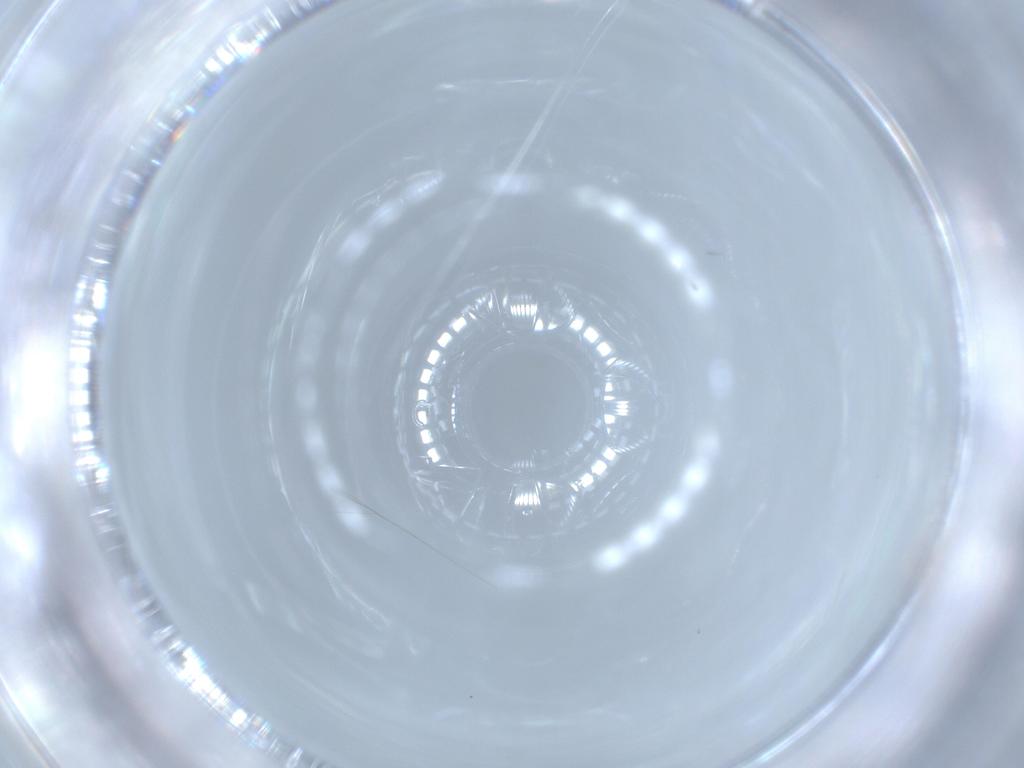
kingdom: Animalia
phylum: Arthropoda
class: Insecta
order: Diptera
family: Cecidomyiidae
